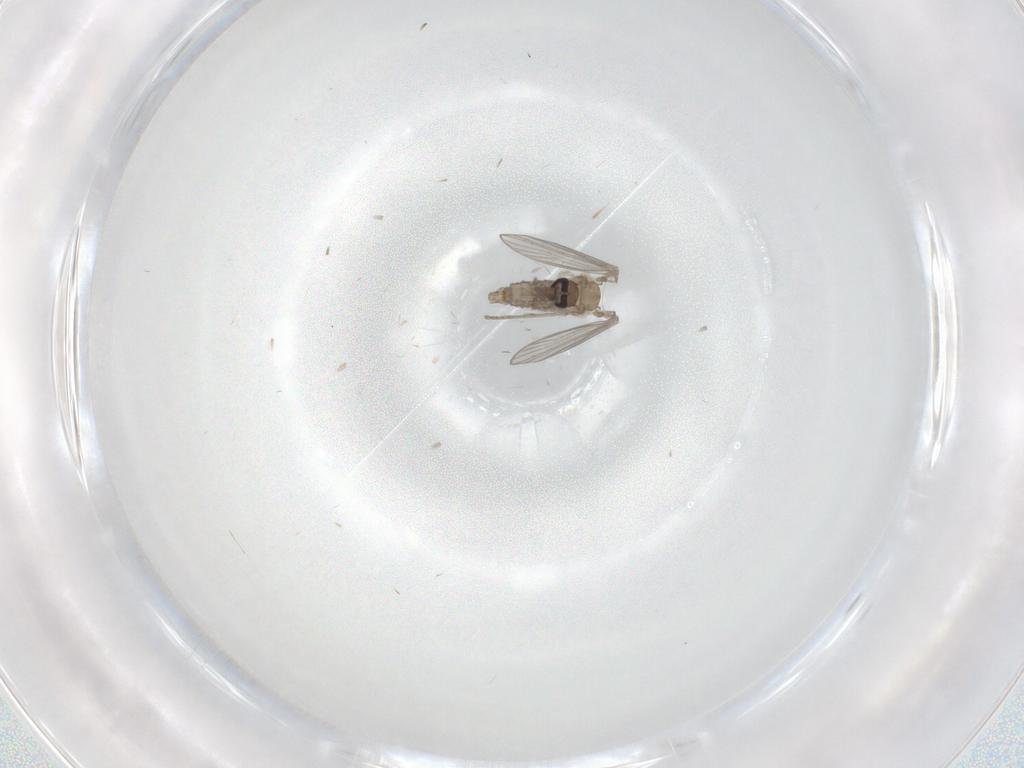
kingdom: Animalia
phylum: Arthropoda
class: Insecta
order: Diptera
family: Psychodidae
